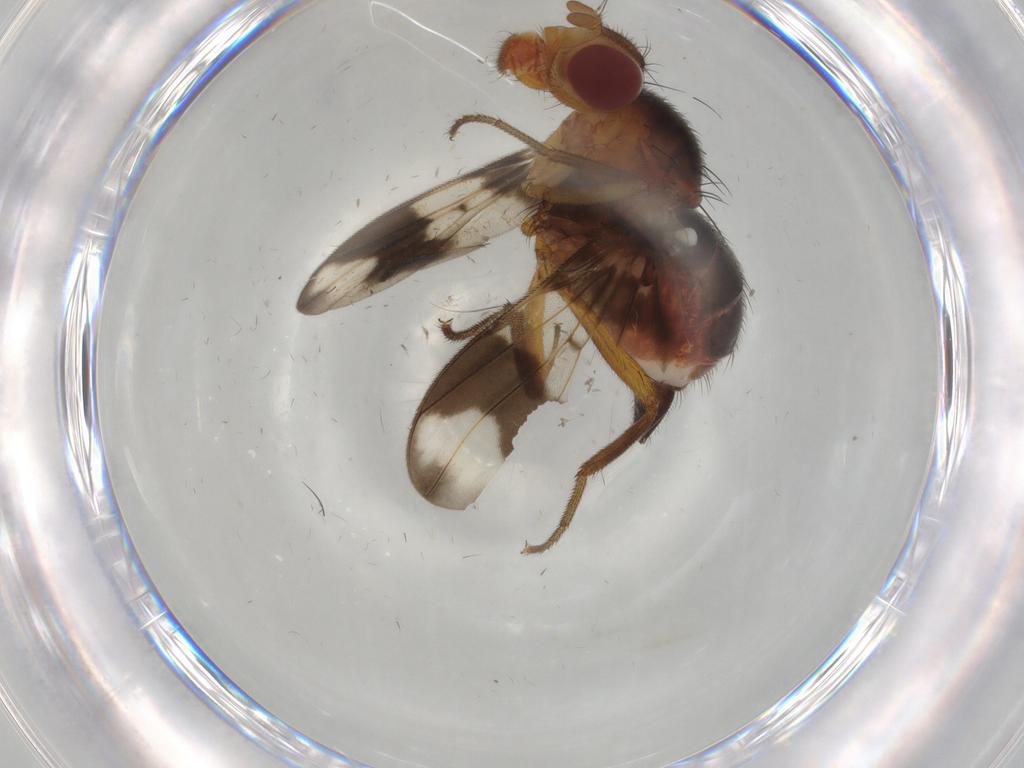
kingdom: Animalia
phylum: Arthropoda
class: Insecta
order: Diptera
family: Richardiidae
